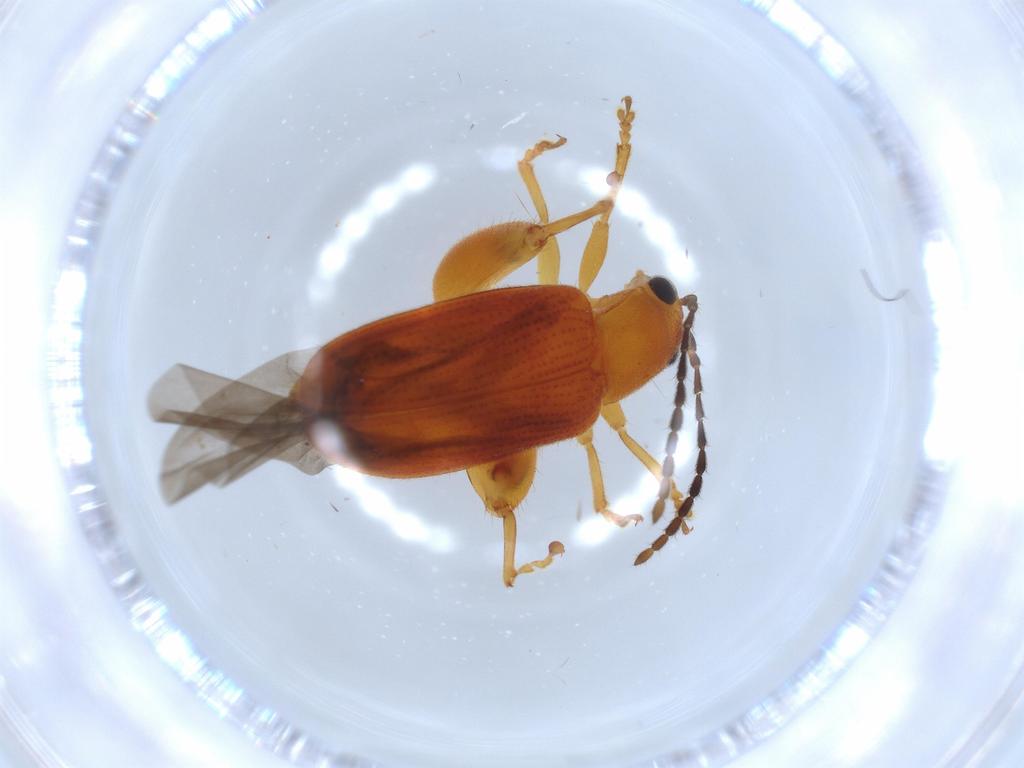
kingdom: Animalia
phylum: Arthropoda
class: Insecta
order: Coleoptera
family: Chrysomelidae
